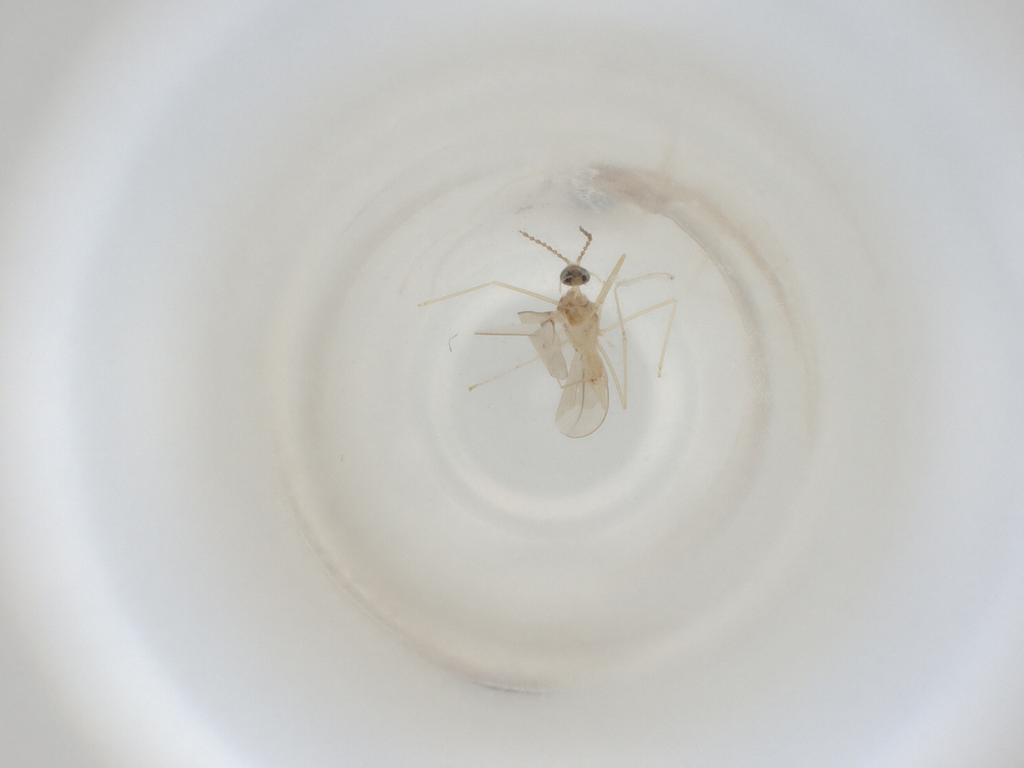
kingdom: Animalia
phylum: Arthropoda
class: Insecta
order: Diptera
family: Cecidomyiidae
